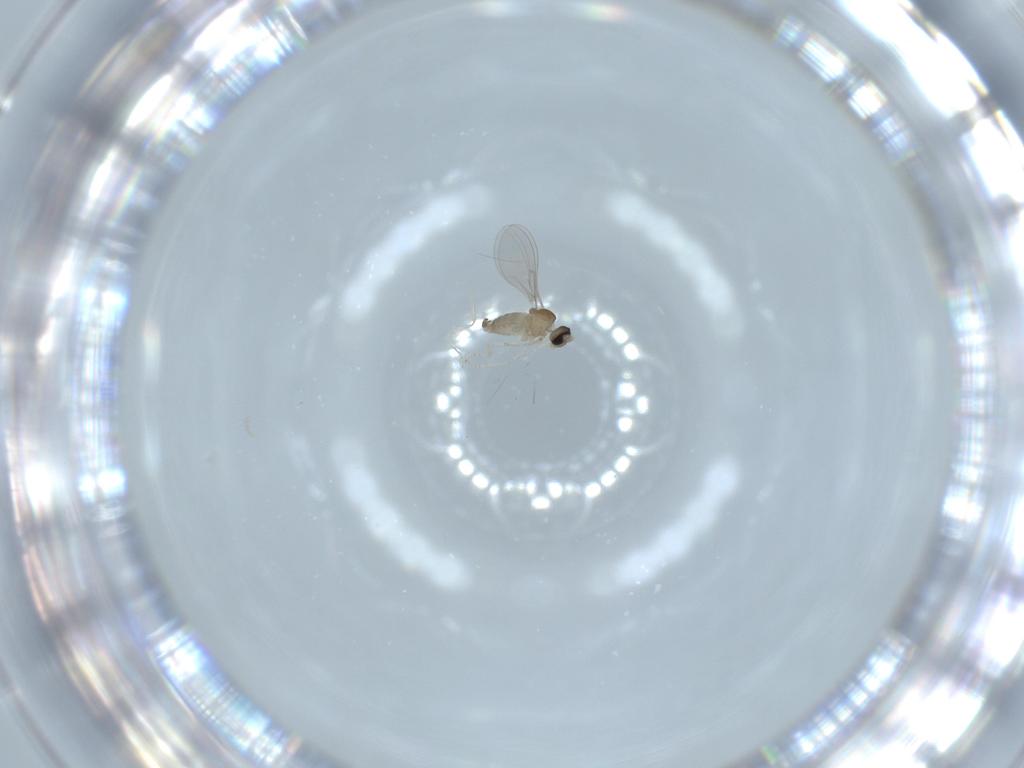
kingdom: Animalia
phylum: Arthropoda
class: Insecta
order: Diptera
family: Cecidomyiidae
